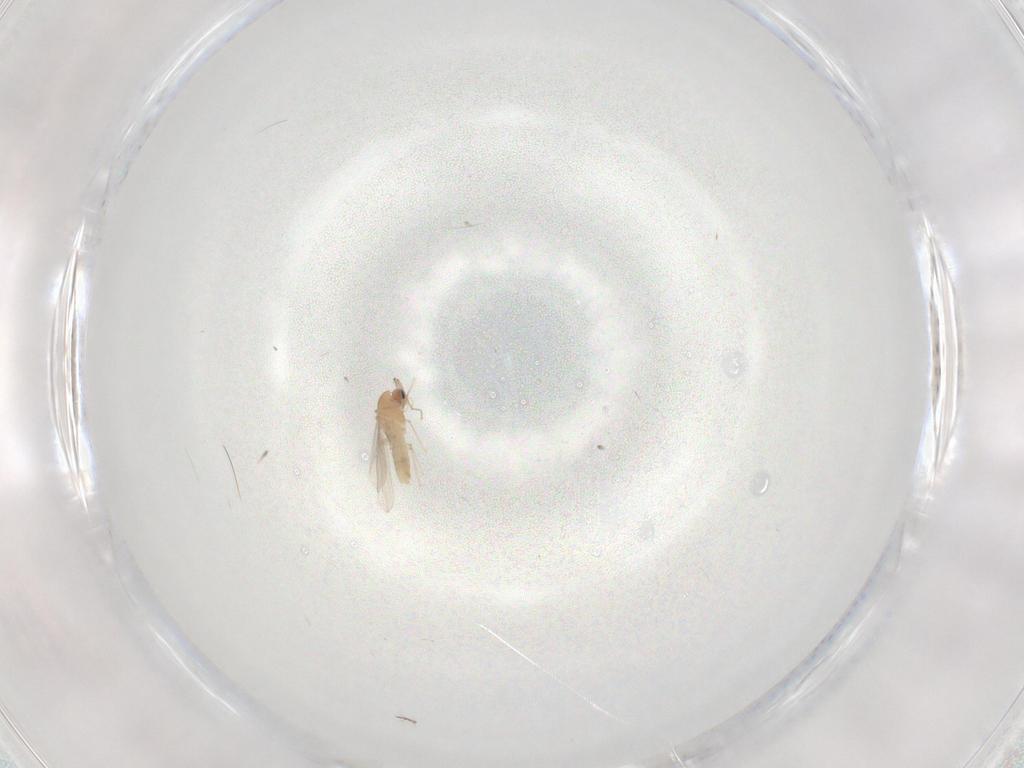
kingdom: Animalia
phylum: Arthropoda
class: Insecta
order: Diptera
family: Chironomidae
